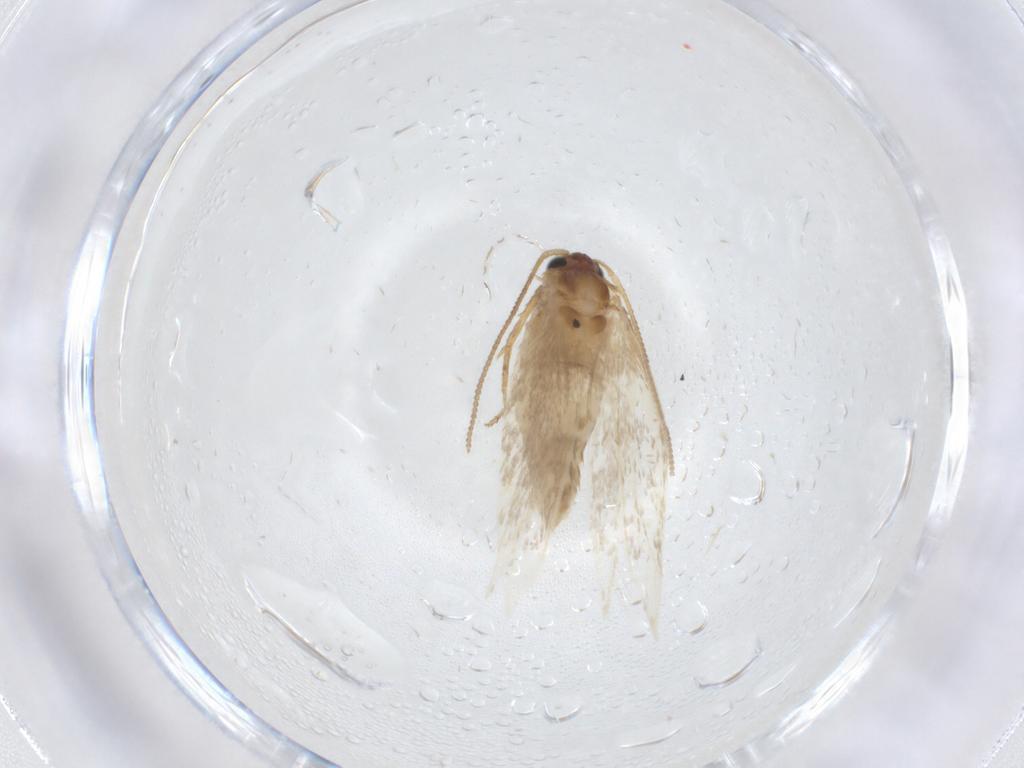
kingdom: Animalia
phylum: Arthropoda
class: Insecta
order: Lepidoptera
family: Nepticulidae
